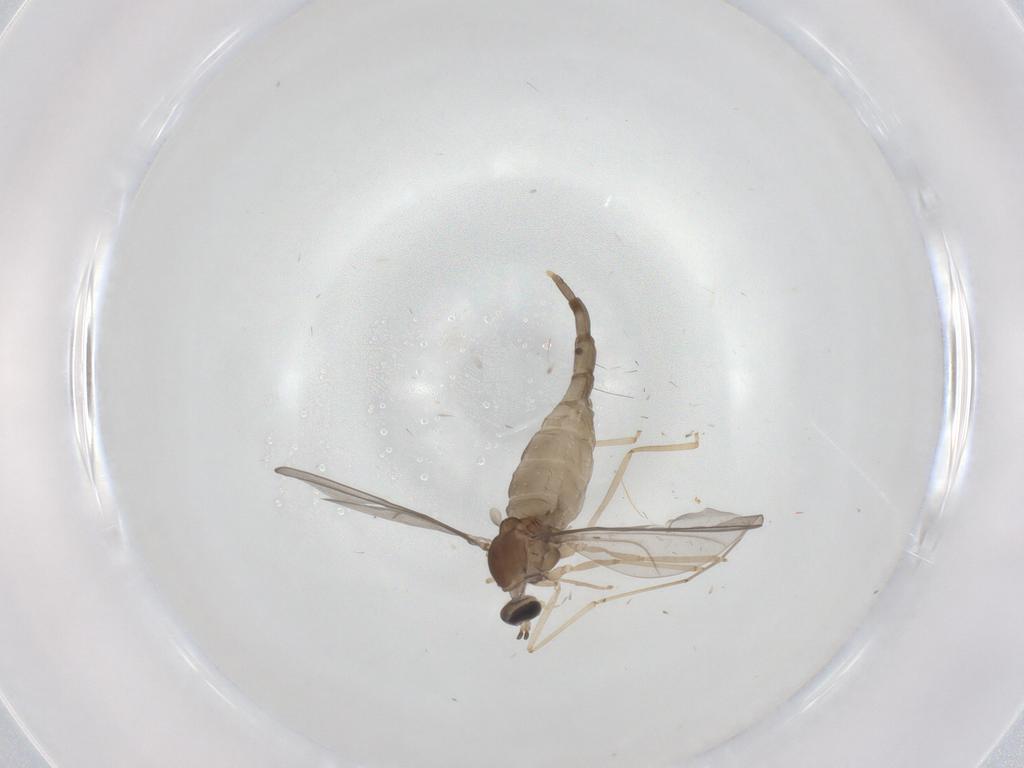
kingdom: Animalia
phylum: Arthropoda
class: Insecta
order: Diptera
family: Cecidomyiidae
